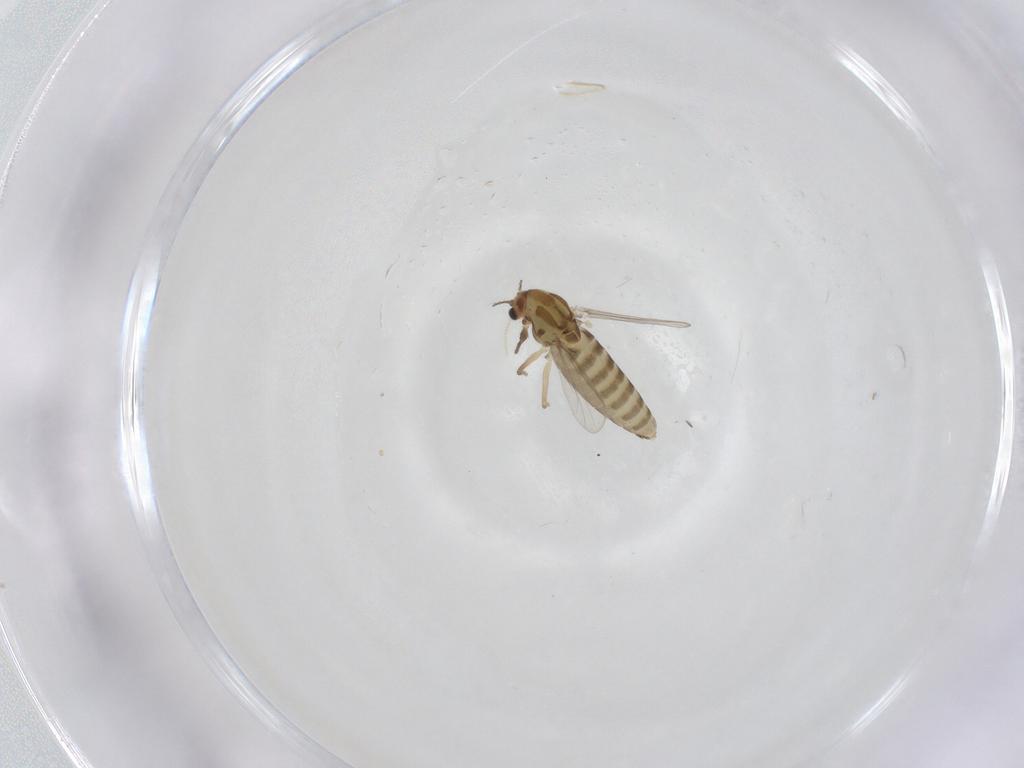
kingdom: Animalia
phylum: Arthropoda
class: Insecta
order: Diptera
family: Chironomidae
